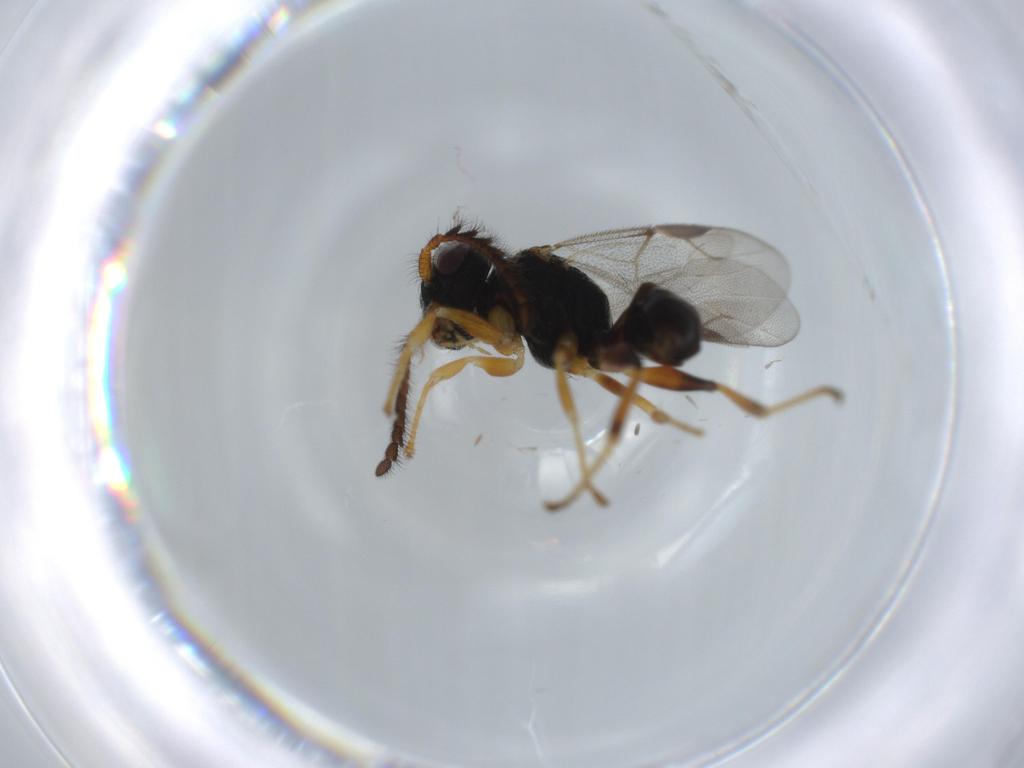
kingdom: Animalia
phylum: Arthropoda
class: Insecta
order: Hymenoptera
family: Dryinidae
